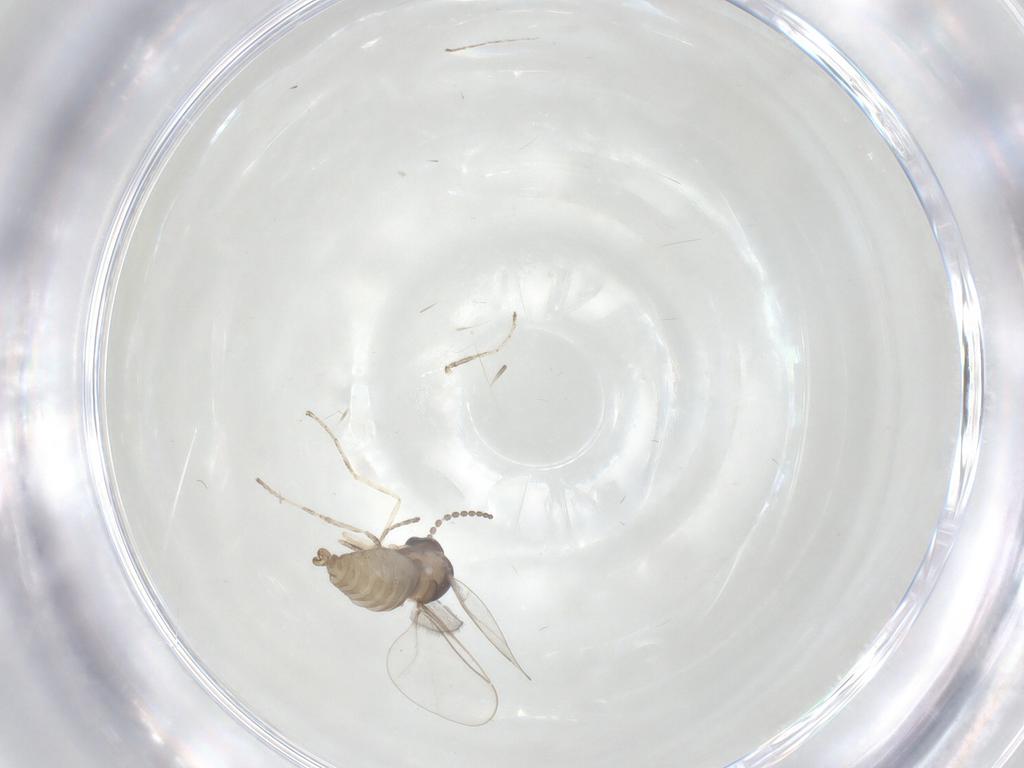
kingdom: Animalia
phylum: Arthropoda
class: Insecta
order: Diptera
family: Cecidomyiidae
